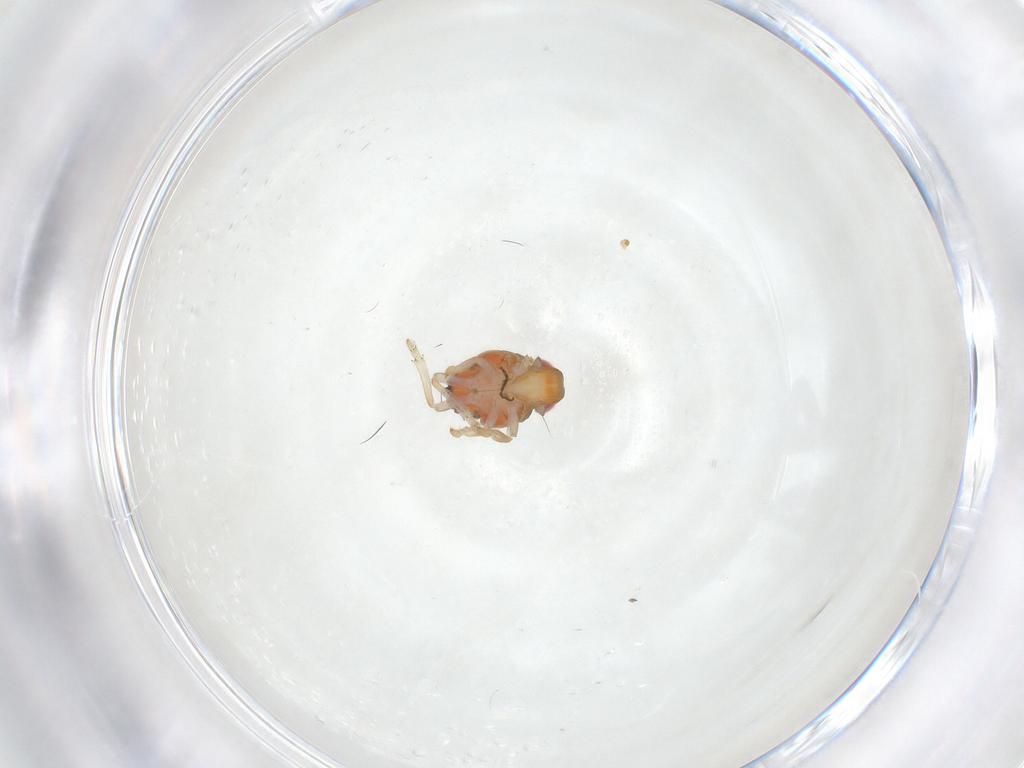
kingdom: Animalia
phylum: Arthropoda
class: Insecta
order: Hemiptera
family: Issidae
